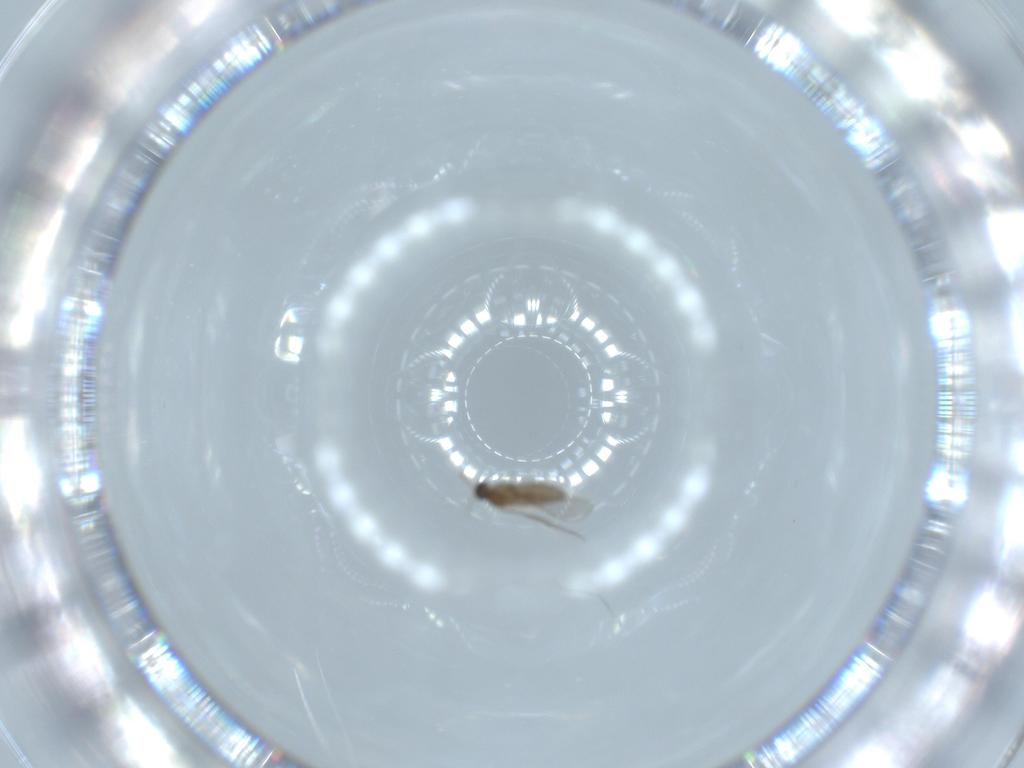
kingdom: Animalia
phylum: Arthropoda
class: Insecta
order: Diptera
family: Cecidomyiidae
